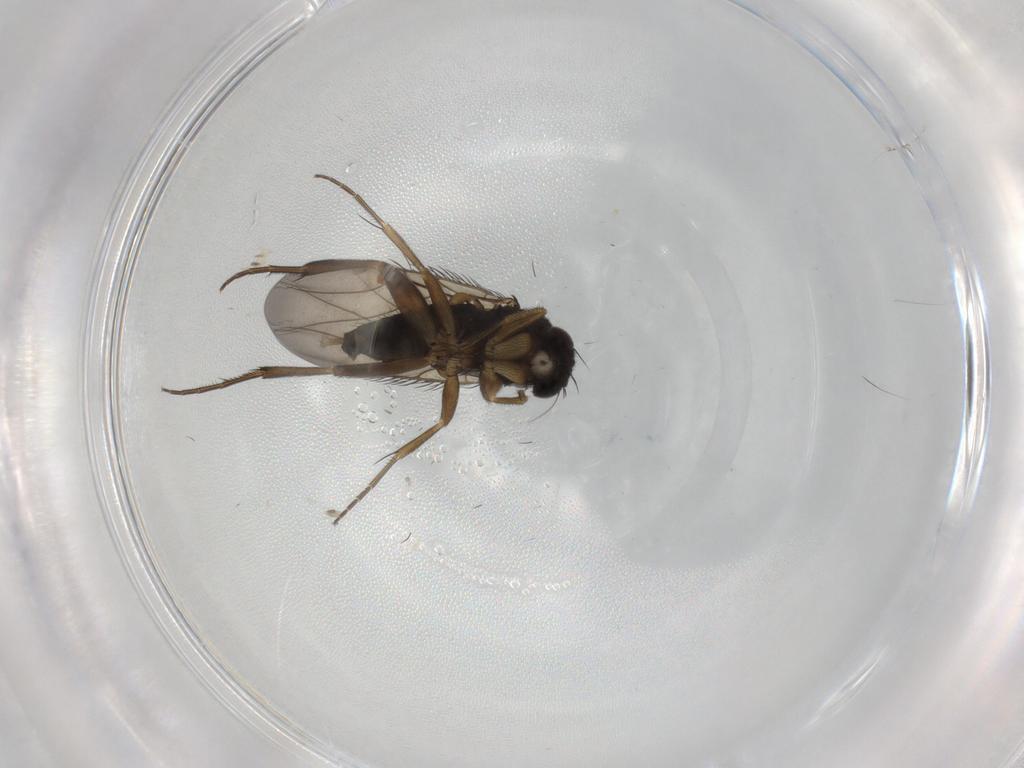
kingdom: Animalia
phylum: Arthropoda
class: Insecta
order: Diptera
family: Phoridae
